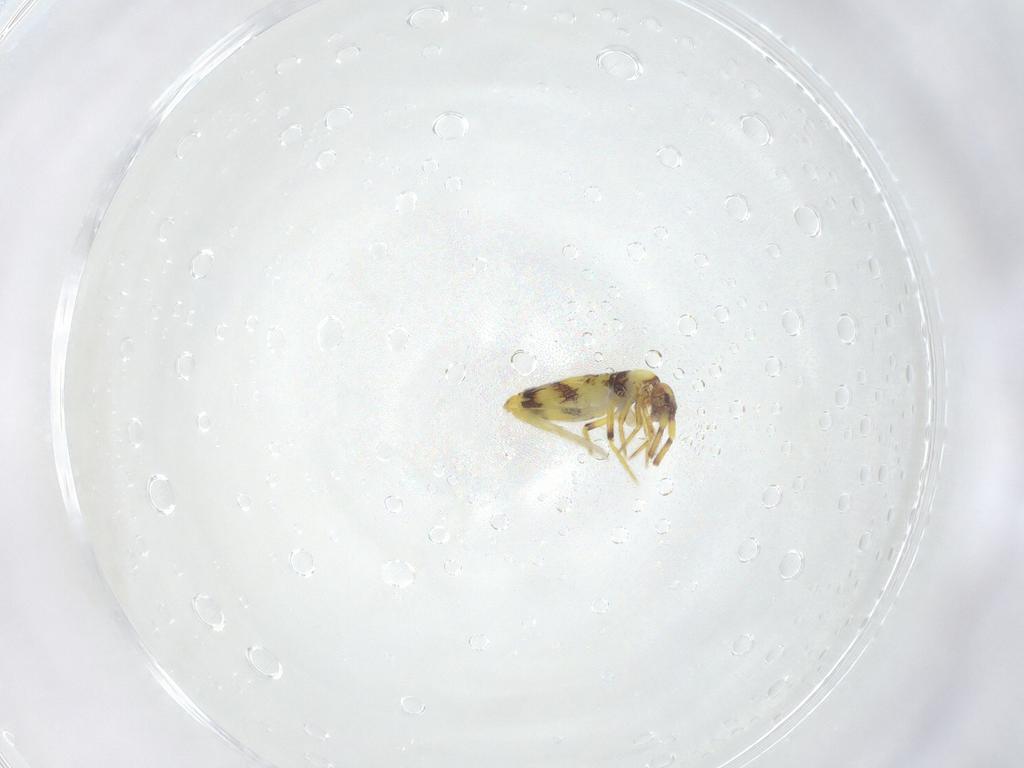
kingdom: Animalia
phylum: Arthropoda
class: Collembola
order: Entomobryomorpha
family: Entomobryidae
